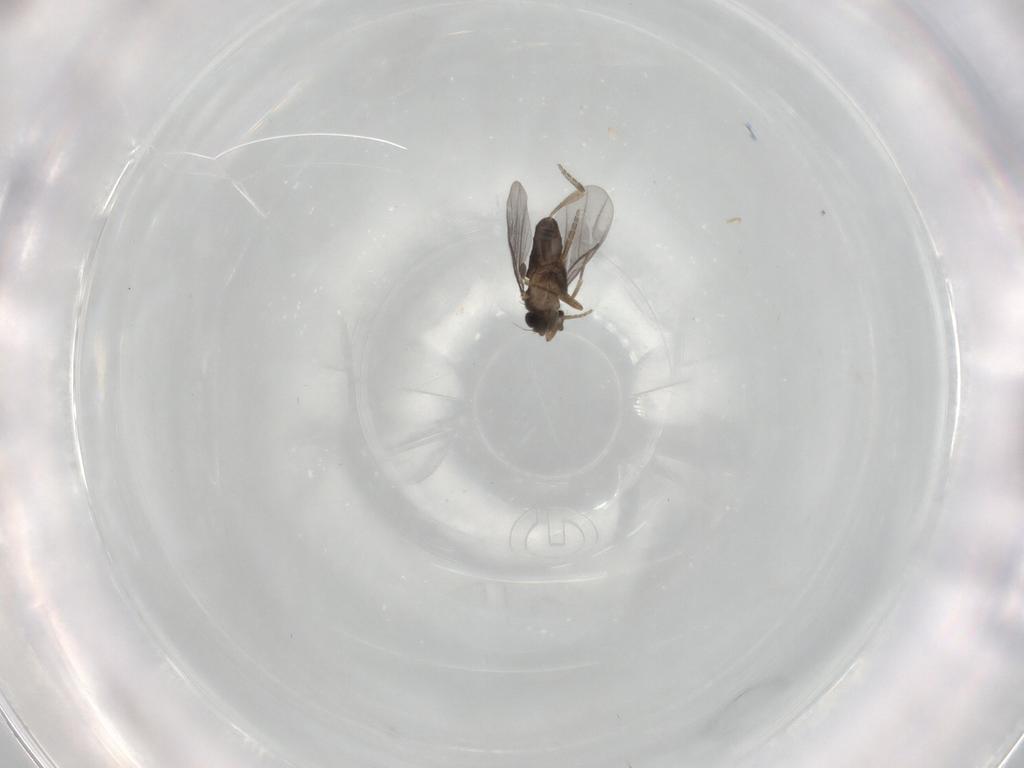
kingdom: Animalia
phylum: Arthropoda
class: Insecta
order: Diptera
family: Psychodidae
